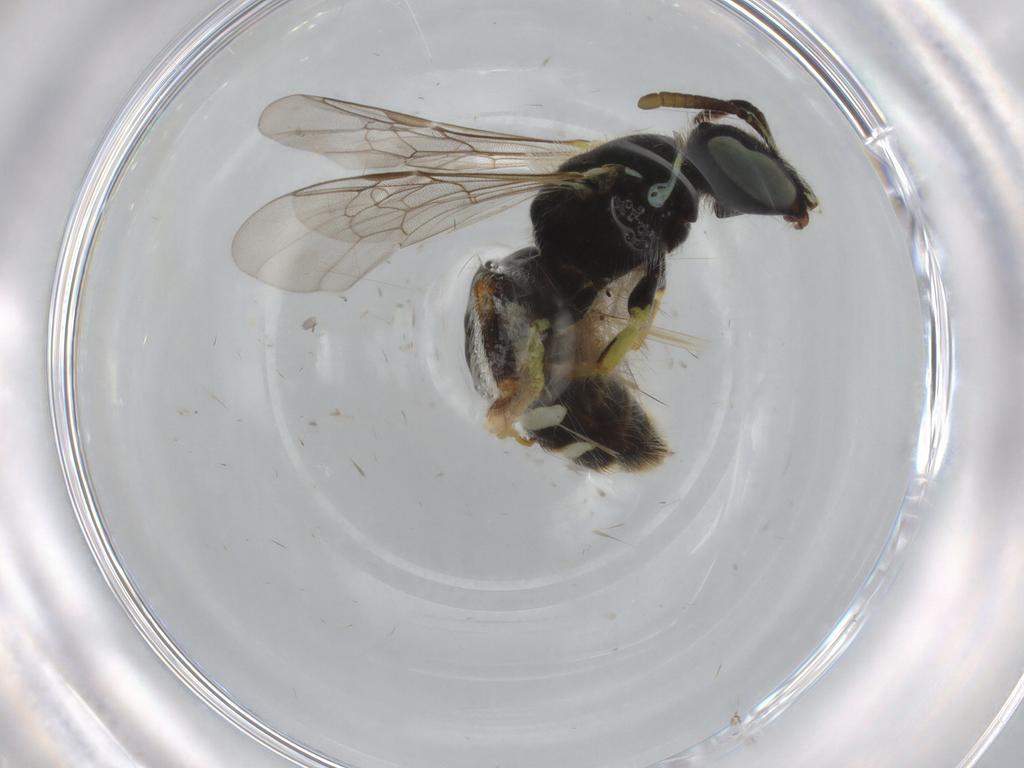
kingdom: Animalia
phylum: Arthropoda
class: Insecta
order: Hymenoptera
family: Halictidae
